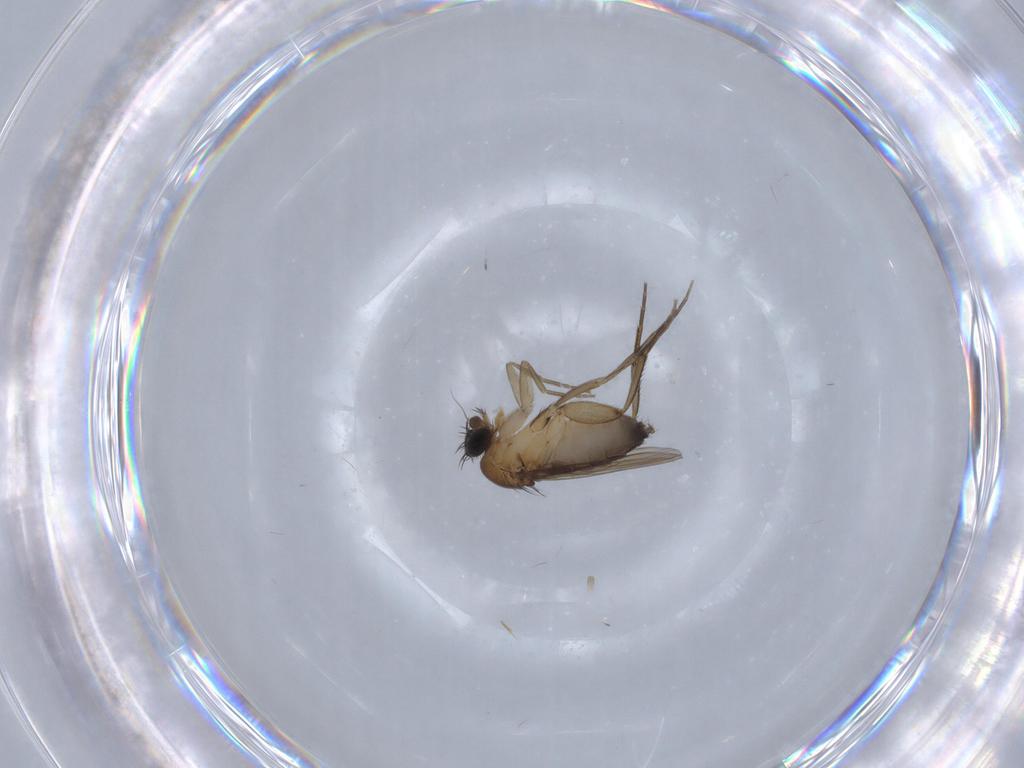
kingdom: Animalia
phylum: Arthropoda
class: Insecta
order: Diptera
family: Phoridae
